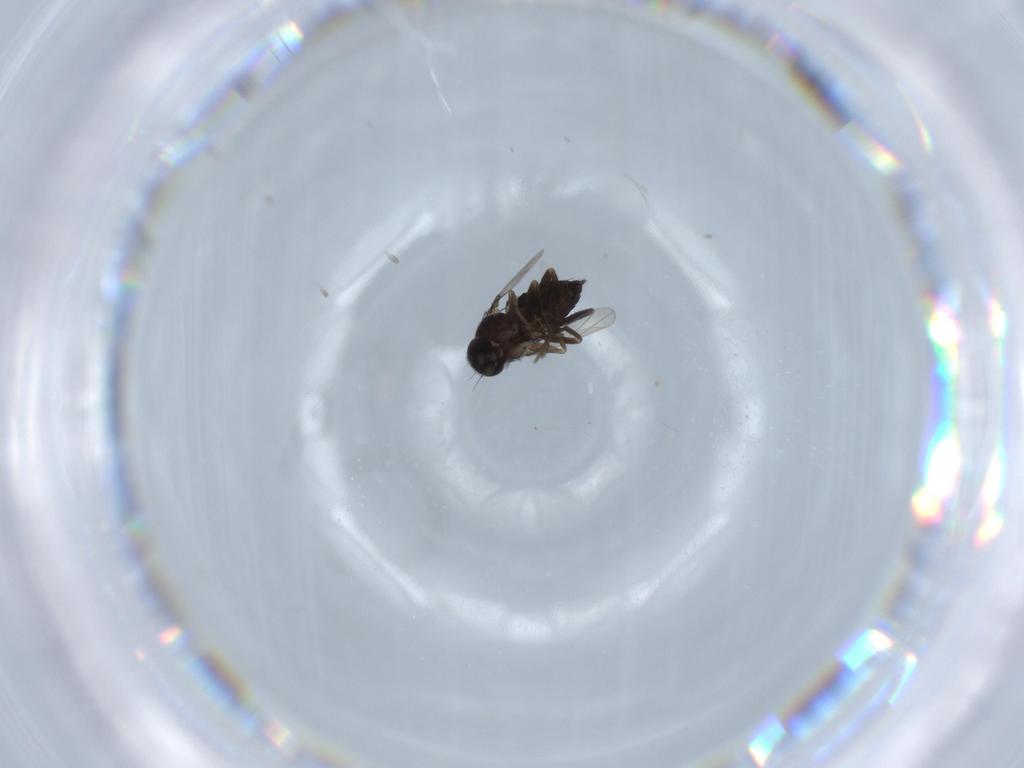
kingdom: Animalia
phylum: Arthropoda
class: Insecta
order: Diptera
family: Phoridae
